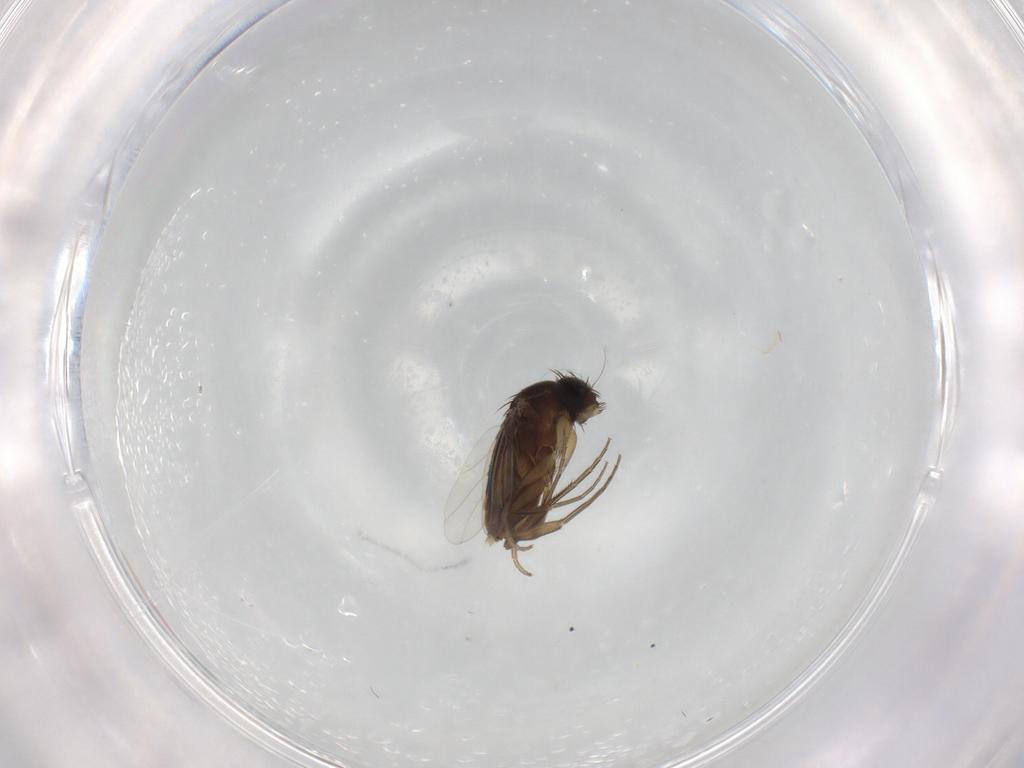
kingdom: Animalia
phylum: Arthropoda
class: Insecta
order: Diptera
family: Phoridae
